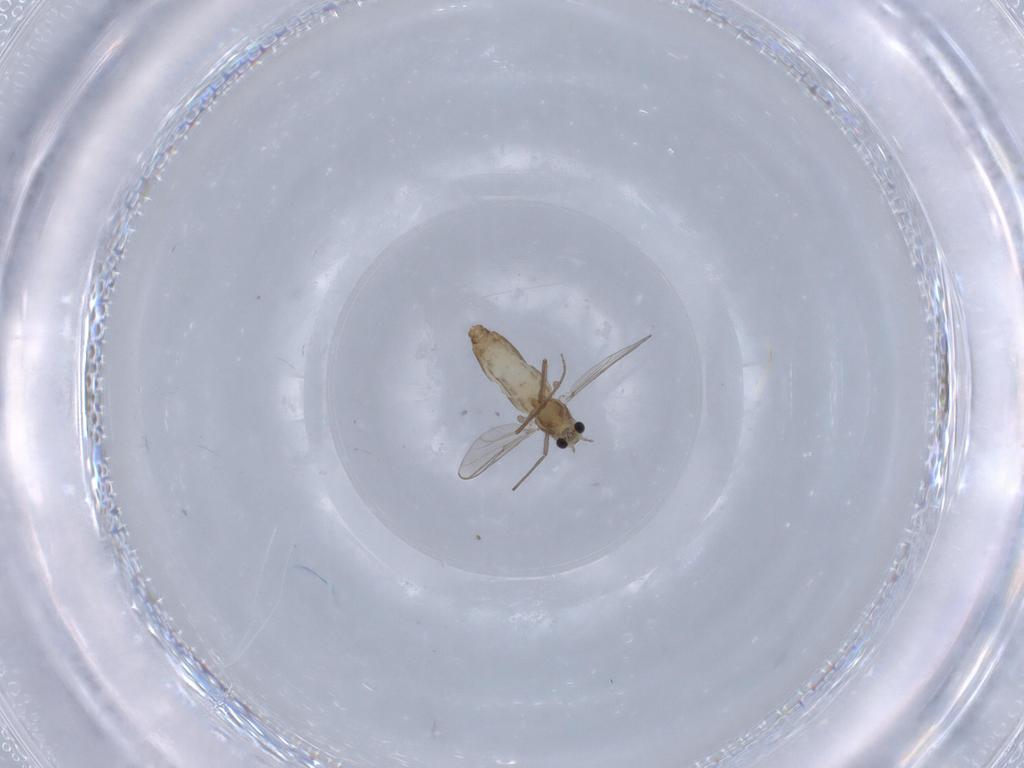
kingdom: Animalia
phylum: Arthropoda
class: Insecta
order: Diptera
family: Chironomidae
